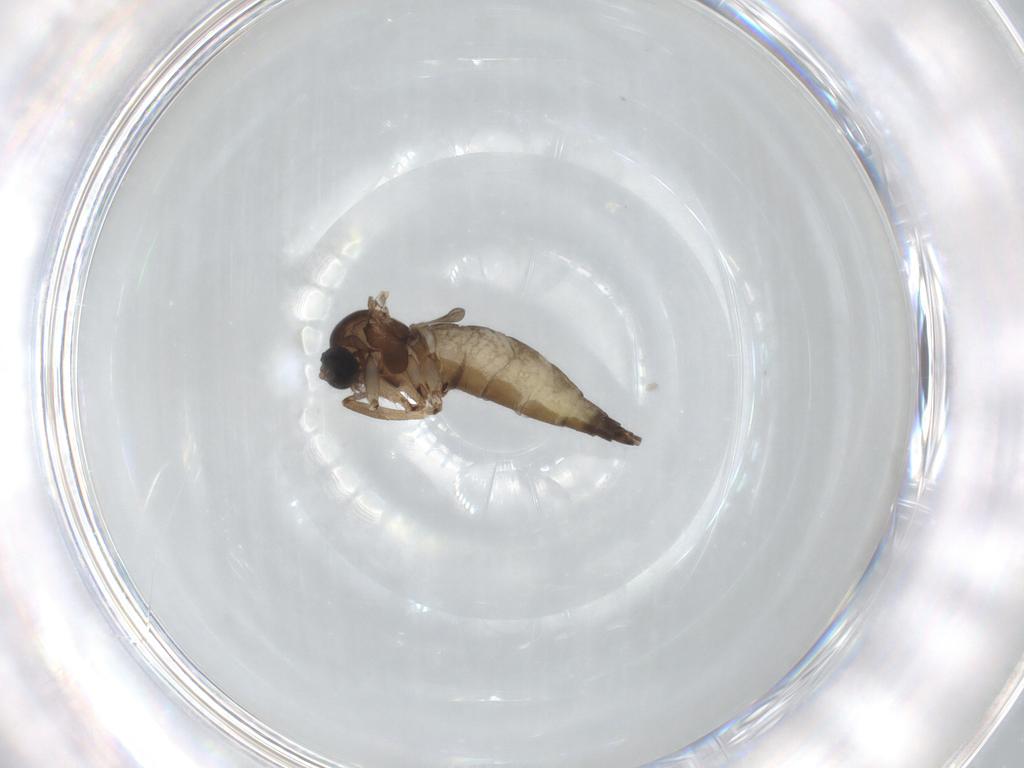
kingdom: Animalia
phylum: Arthropoda
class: Insecta
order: Diptera
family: Sciaridae
